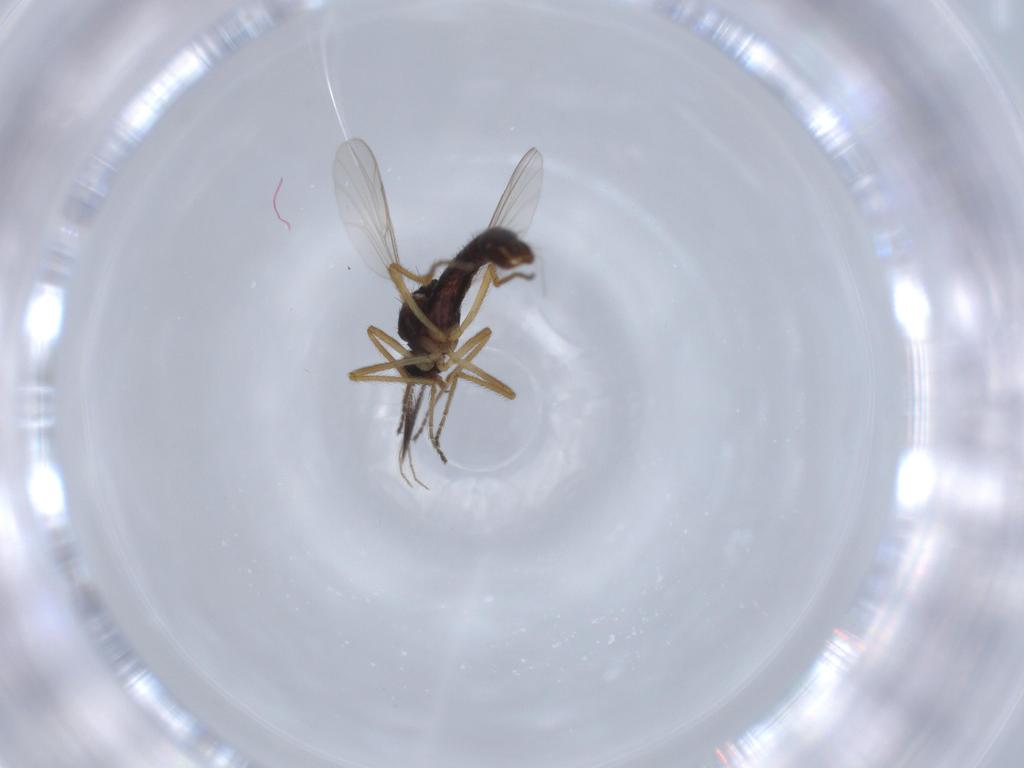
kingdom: Animalia
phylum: Arthropoda
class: Insecta
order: Diptera
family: Ceratopogonidae
